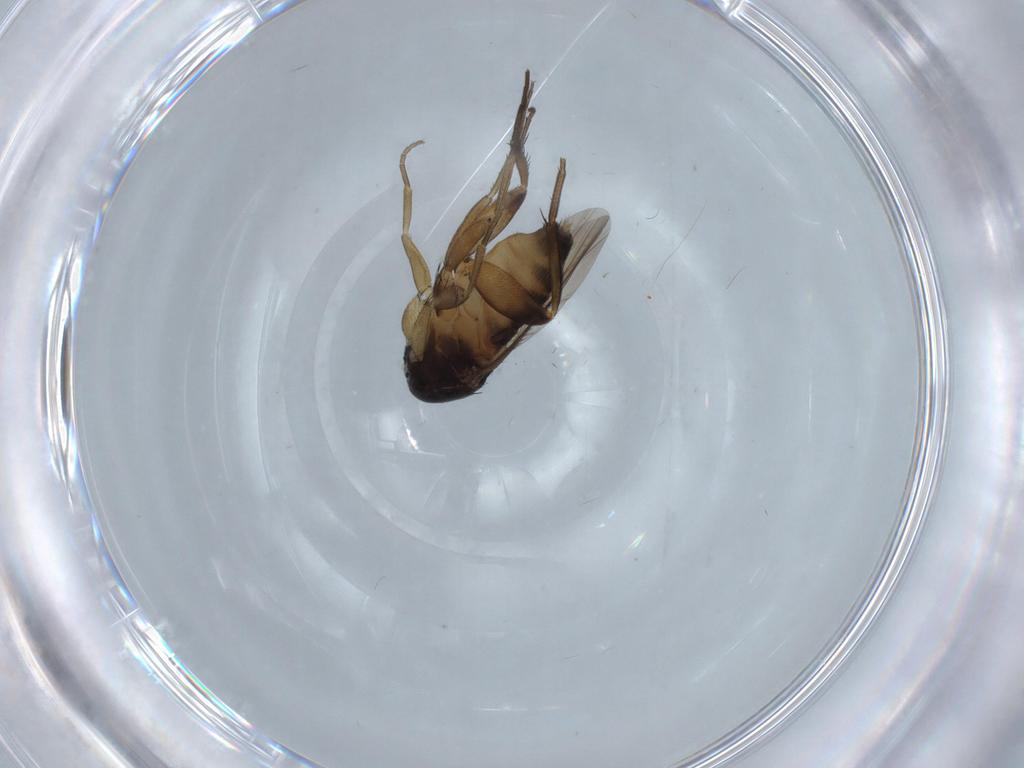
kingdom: Animalia
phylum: Arthropoda
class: Insecta
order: Diptera
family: Phoridae
